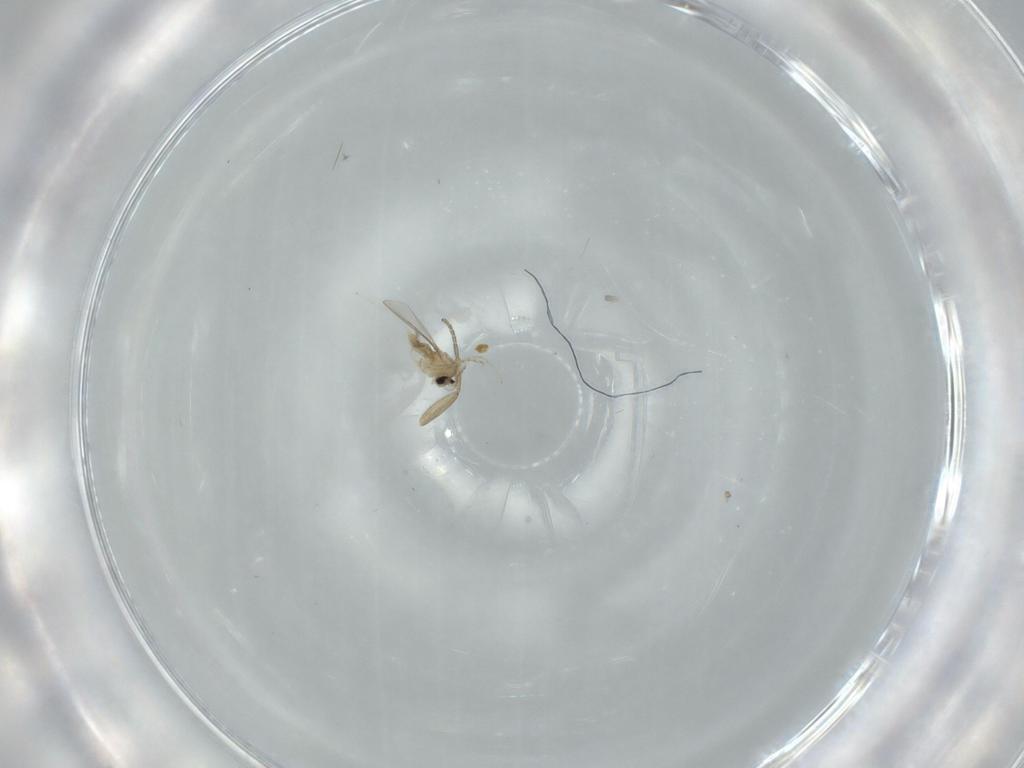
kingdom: Animalia
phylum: Arthropoda
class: Insecta
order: Diptera
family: Cecidomyiidae
